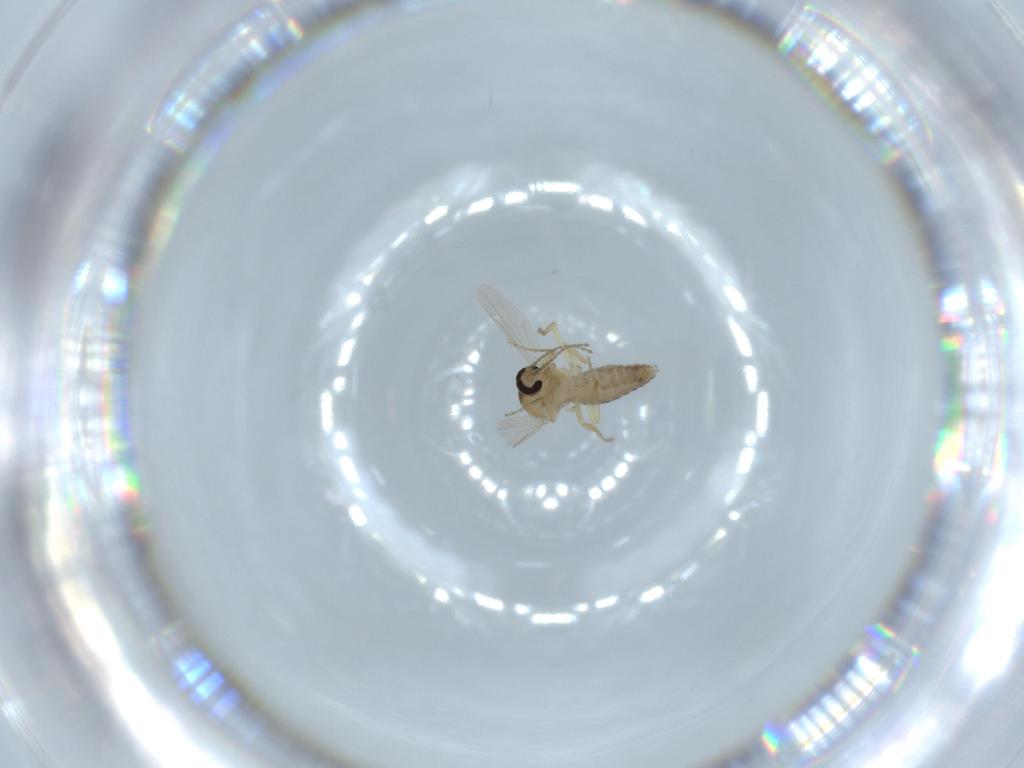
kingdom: Animalia
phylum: Arthropoda
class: Insecta
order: Diptera
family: Ceratopogonidae
